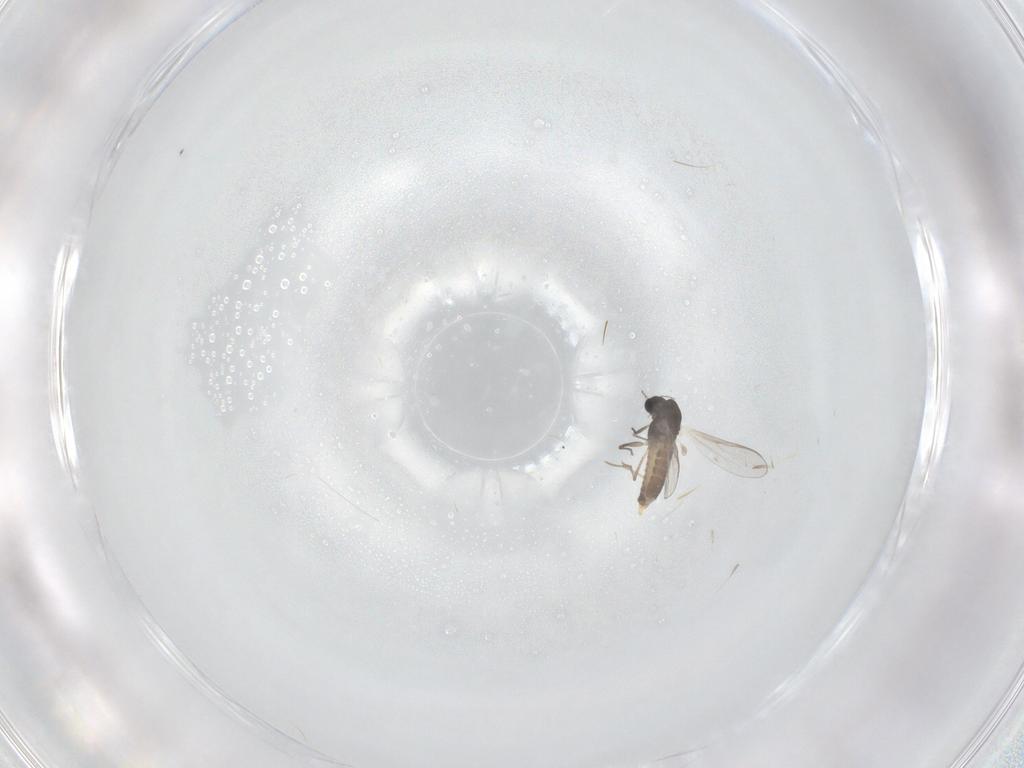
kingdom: Animalia
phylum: Arthropoda
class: Insecta
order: Diptera
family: Chironomidae
